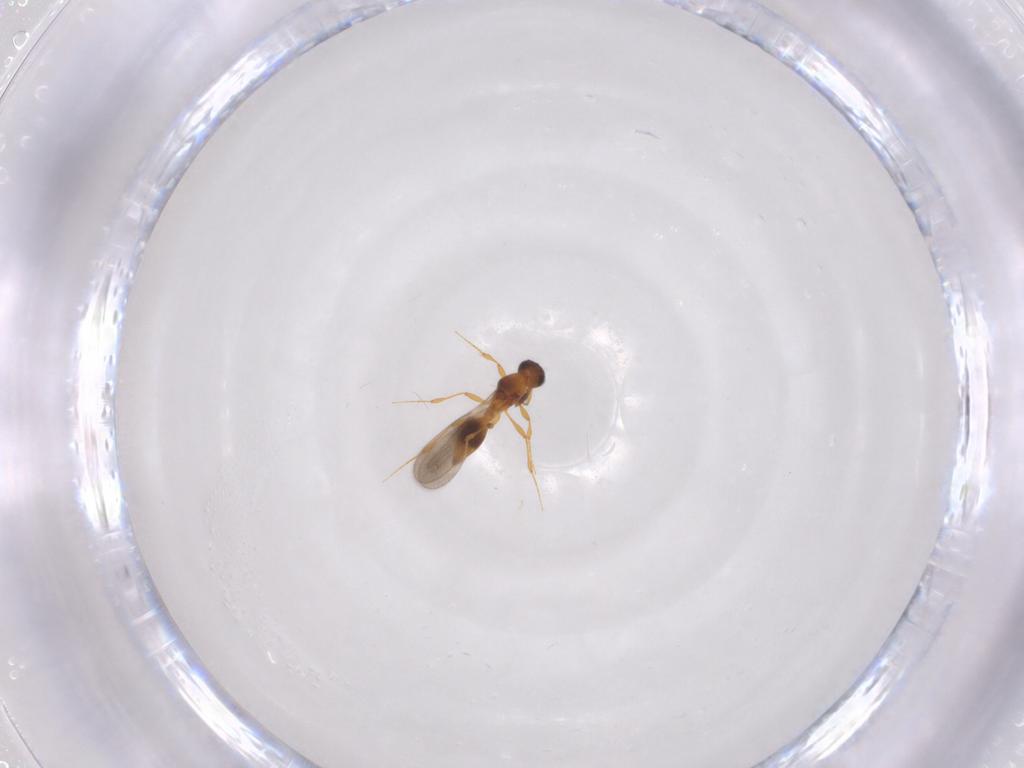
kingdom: Animalia
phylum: Arthropoda
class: Insecta
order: Hymenoptera
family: Platygastridae
